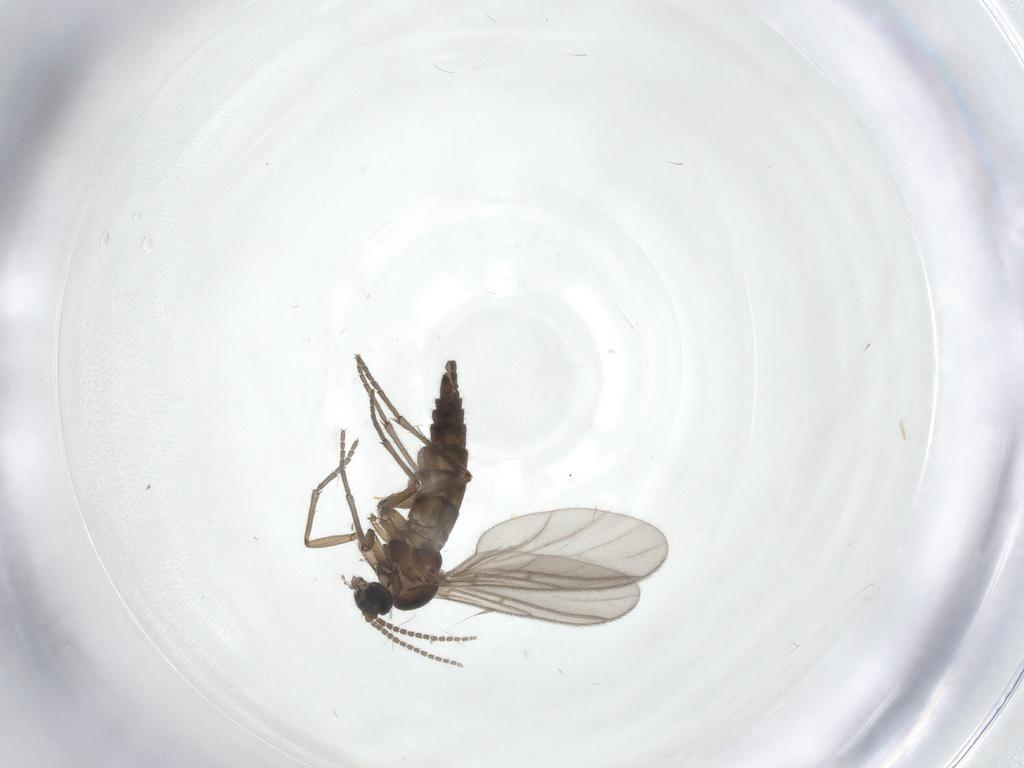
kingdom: Animalia
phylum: Arthropoda
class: Insecta
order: Diptera
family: Sciaridae
